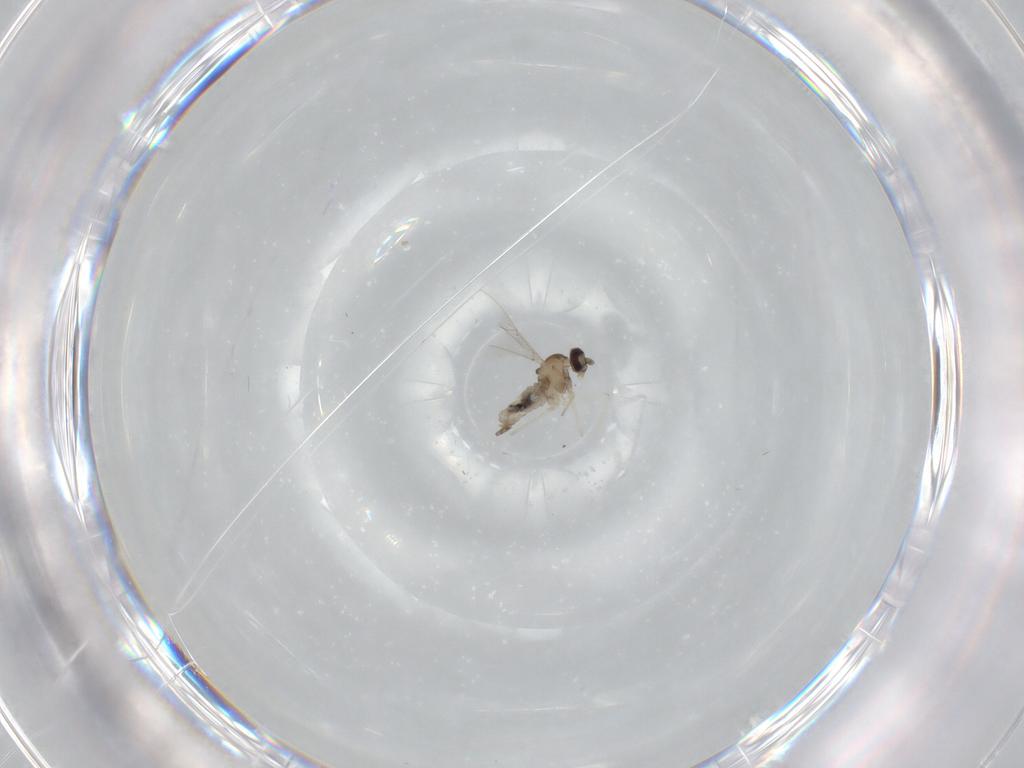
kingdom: Animalia
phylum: Arthropoda
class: Insecta
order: Diptera
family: Cecidomyiidae
